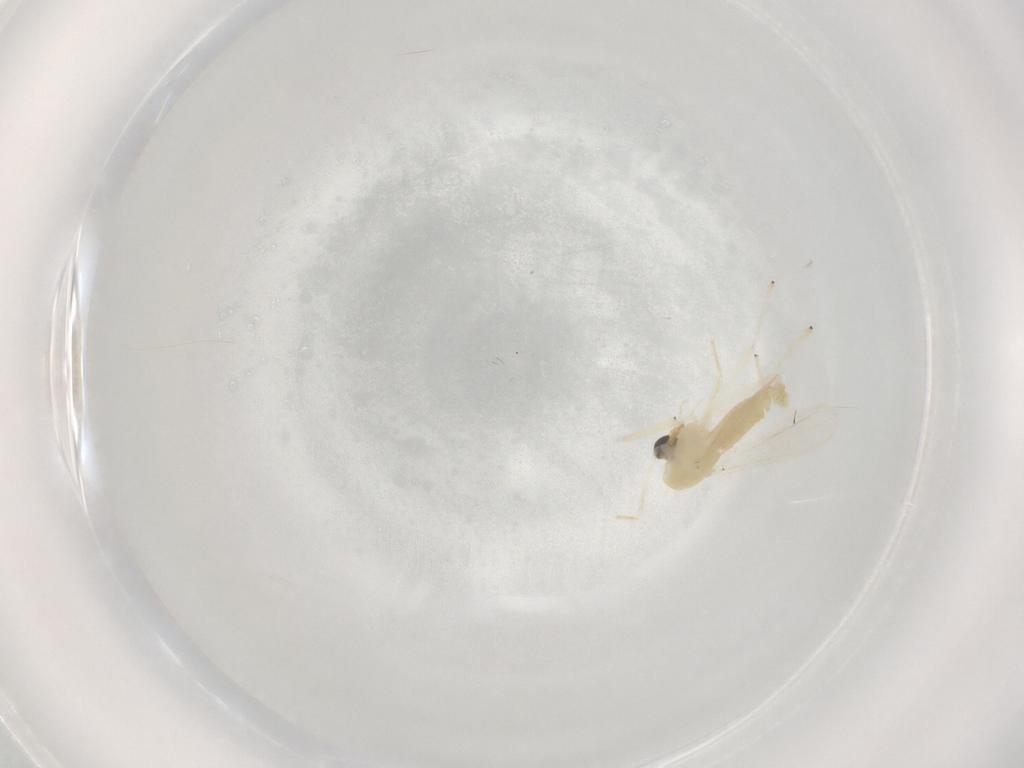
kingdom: Animalia
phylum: Arthropoda
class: Insecta
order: Diptera
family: Chironomidae
